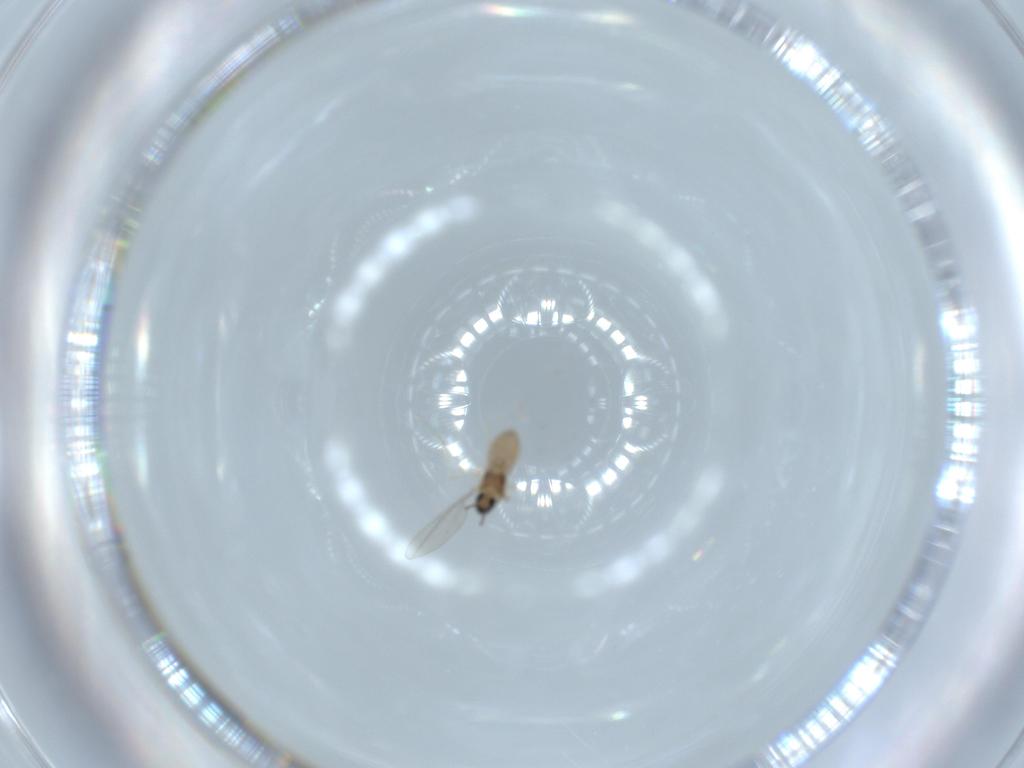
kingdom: Animalia
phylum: Arthropoda
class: Insecta
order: Diptera
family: Cecidomyiidae
